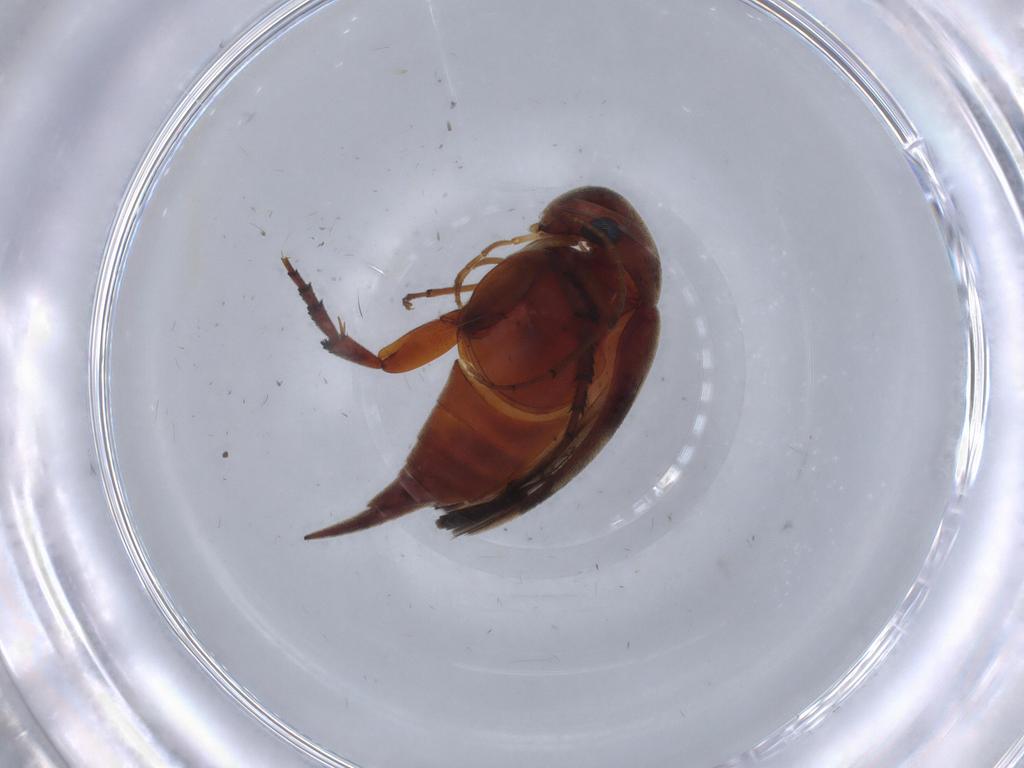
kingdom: Animalia
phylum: Arthropoda
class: Insecta
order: Coleoptera
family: Mordellidae
